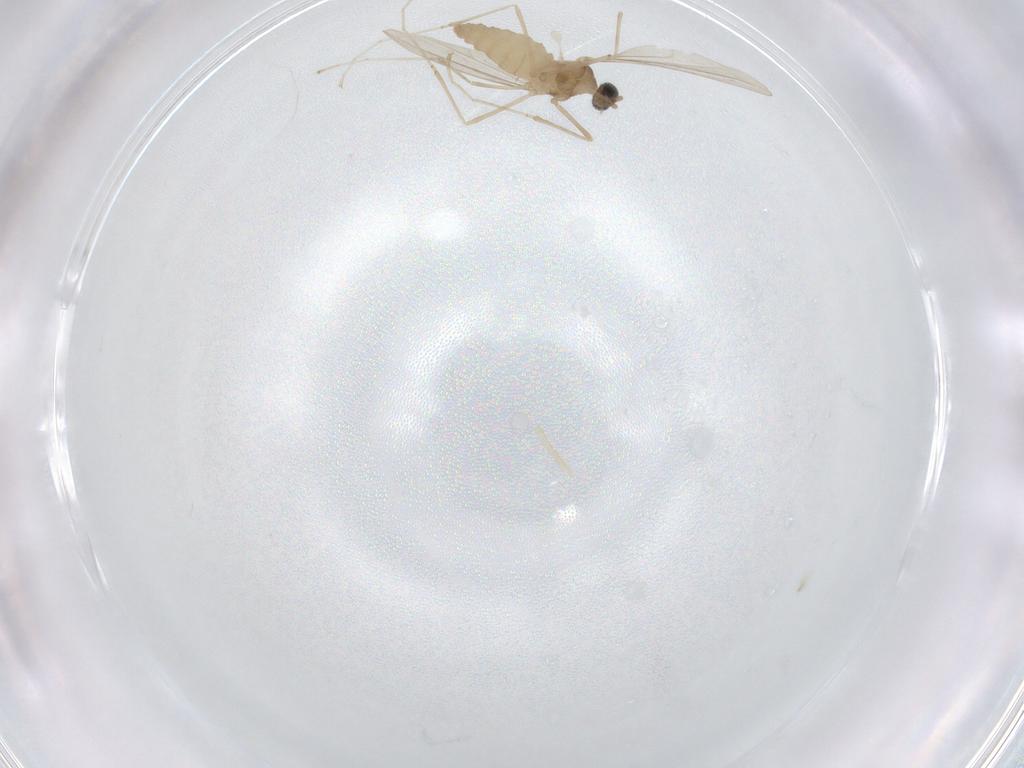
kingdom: Animalia
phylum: Arthropoda
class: Insecta
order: Diptera
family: Cecidomyiidae
